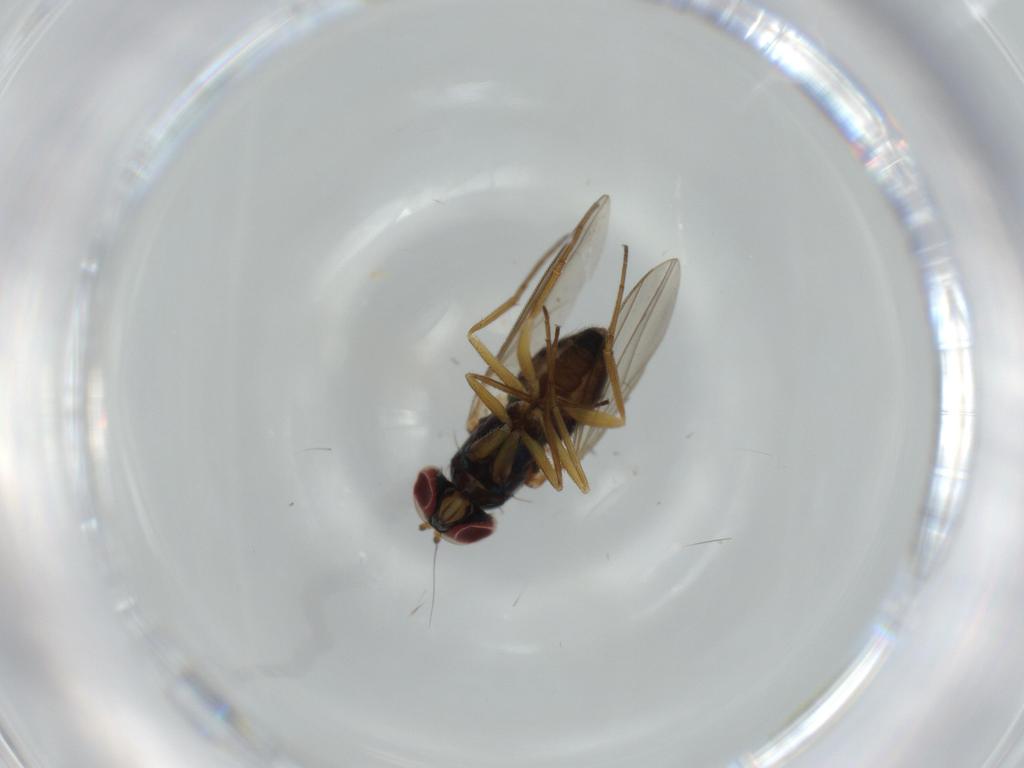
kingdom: Animalia
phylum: Arthropoda
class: Insecta
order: Diptera
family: Dolichopodidae
